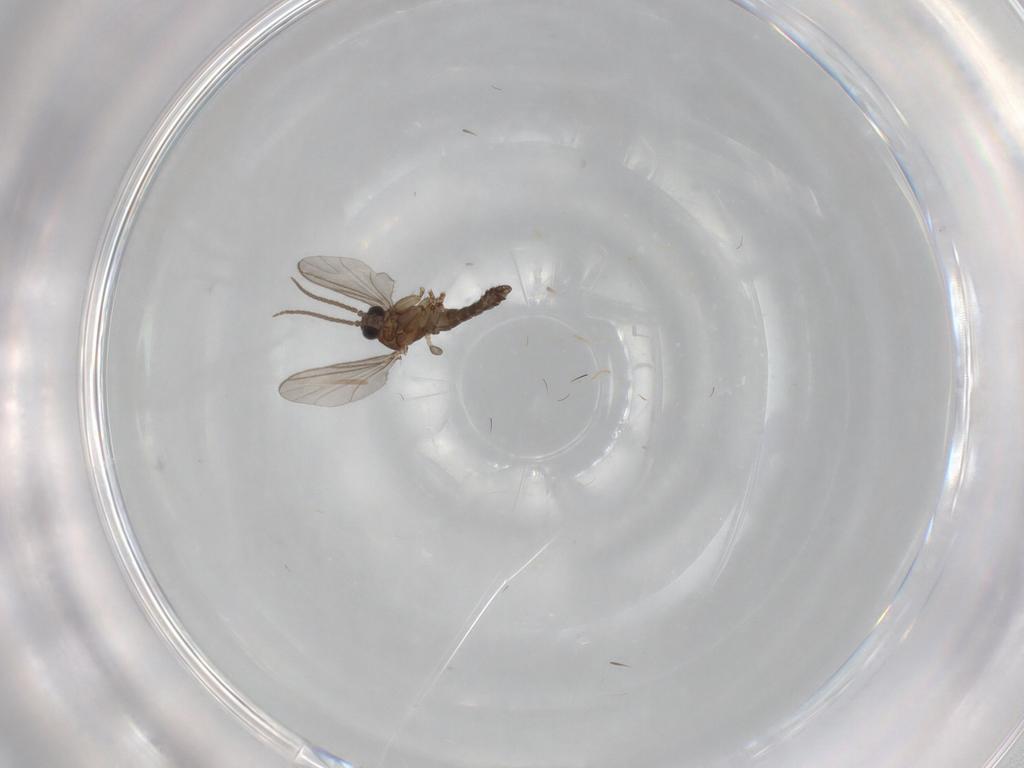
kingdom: Animalia
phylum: Arthropoda
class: Insecta
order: Diptera
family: Sciaridae
